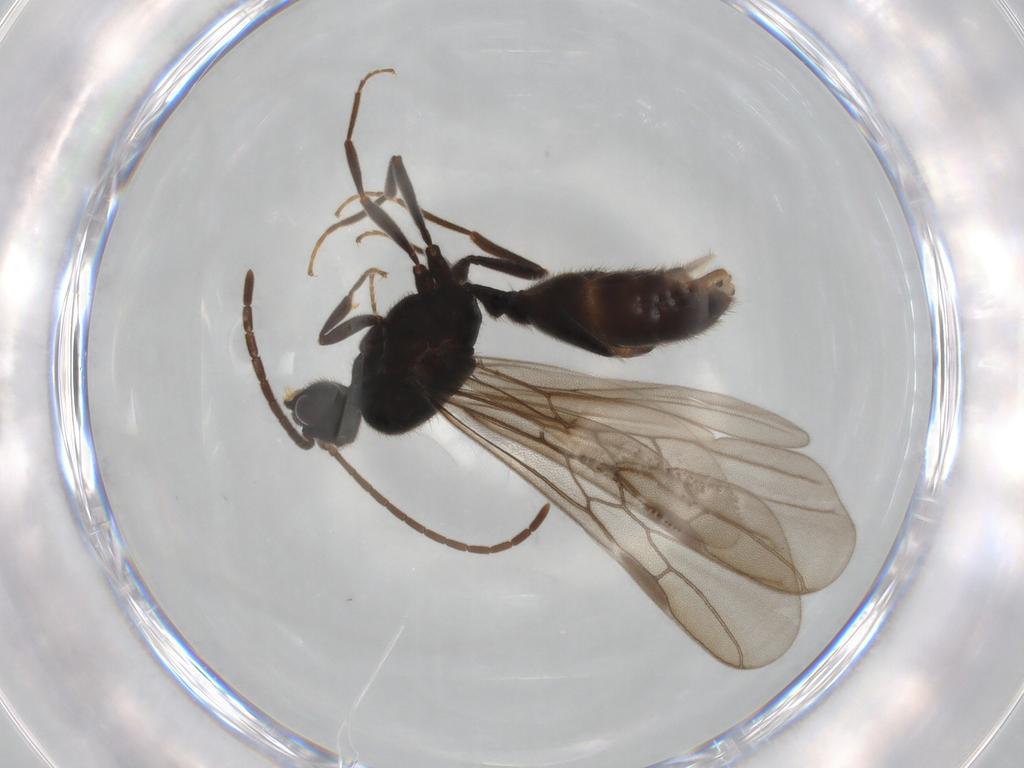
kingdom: Animalia
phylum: Arthropoda
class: Insecta
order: Hymenoptera
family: Formicidae
